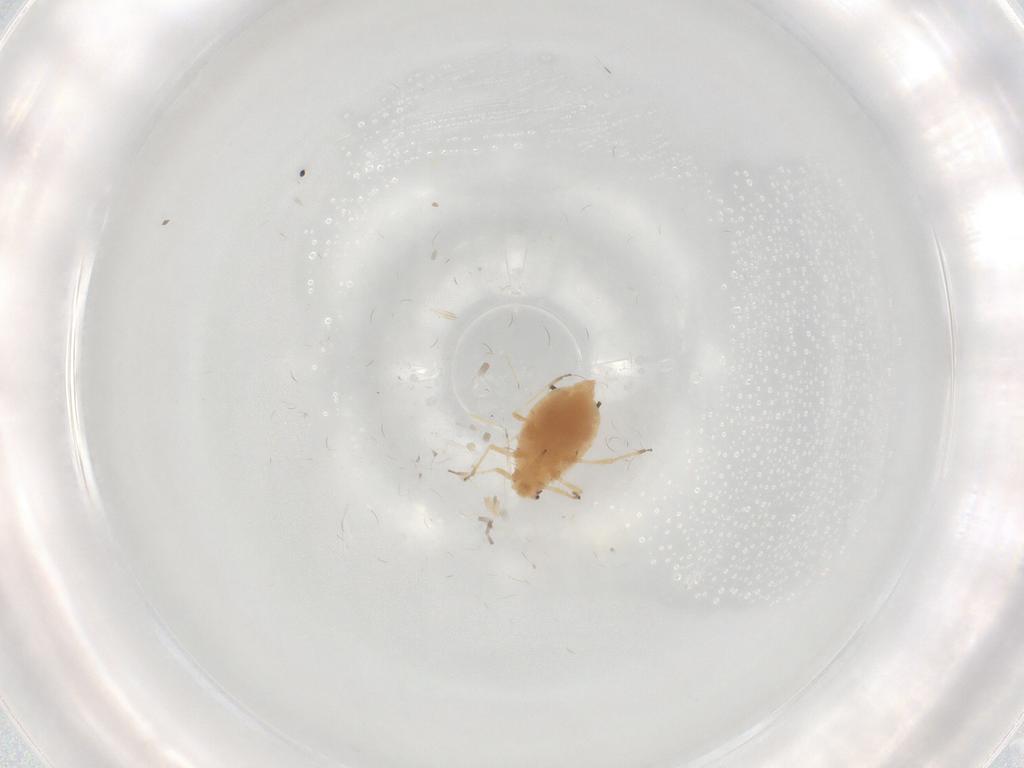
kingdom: Animalia
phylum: Arthropoda
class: Insecta
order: Hemiptera
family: Aphididae
